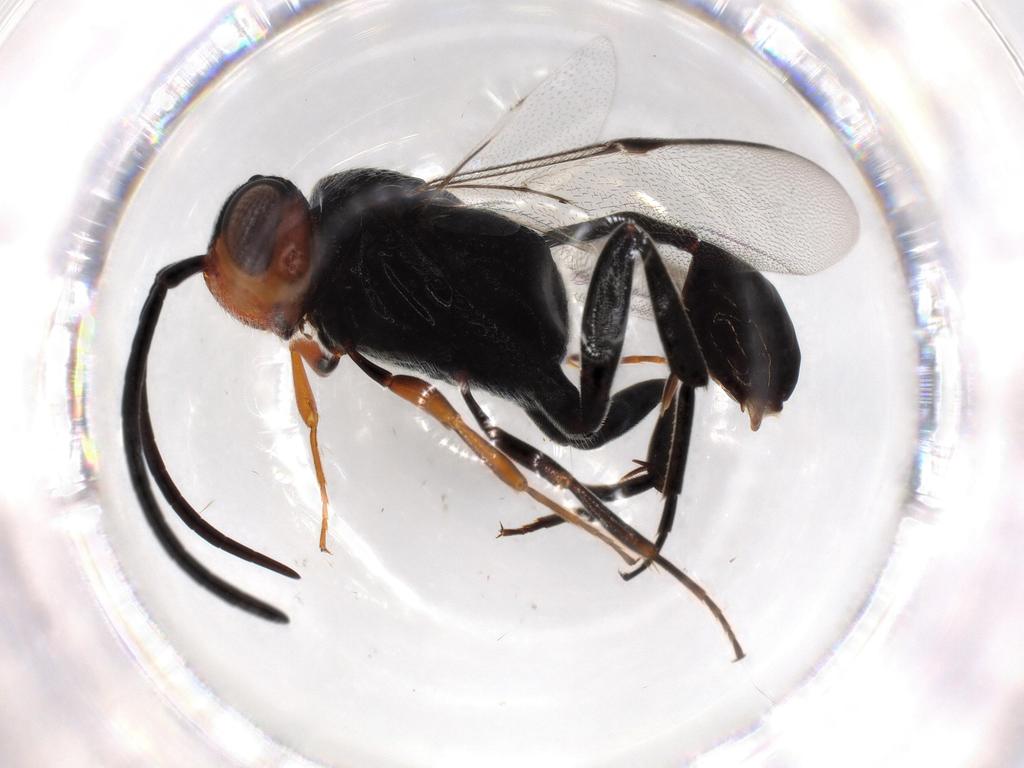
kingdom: Animalia
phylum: Arthropoda
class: Insecta
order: Hymenoptera
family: Evaniidae
